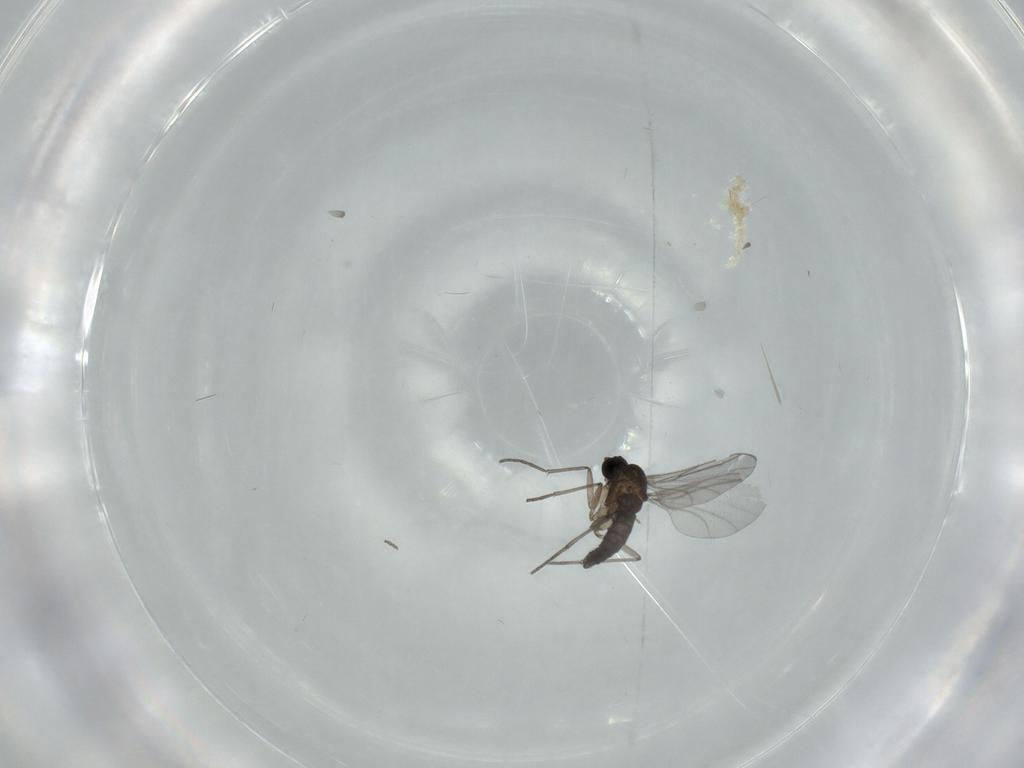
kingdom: Animalia
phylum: Arthropoda
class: Insecta
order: Diptera
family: Sciaridae
